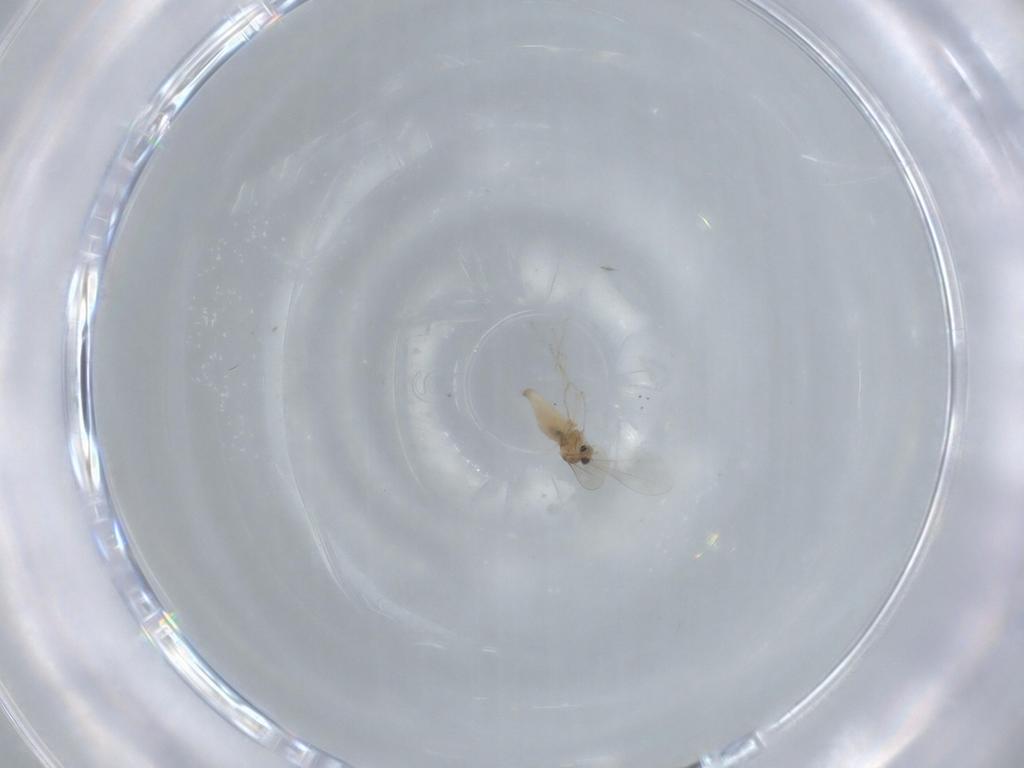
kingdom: Animalia
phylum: Arthropoda
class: Insecta
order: Diptera
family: Cecidomyiidae
